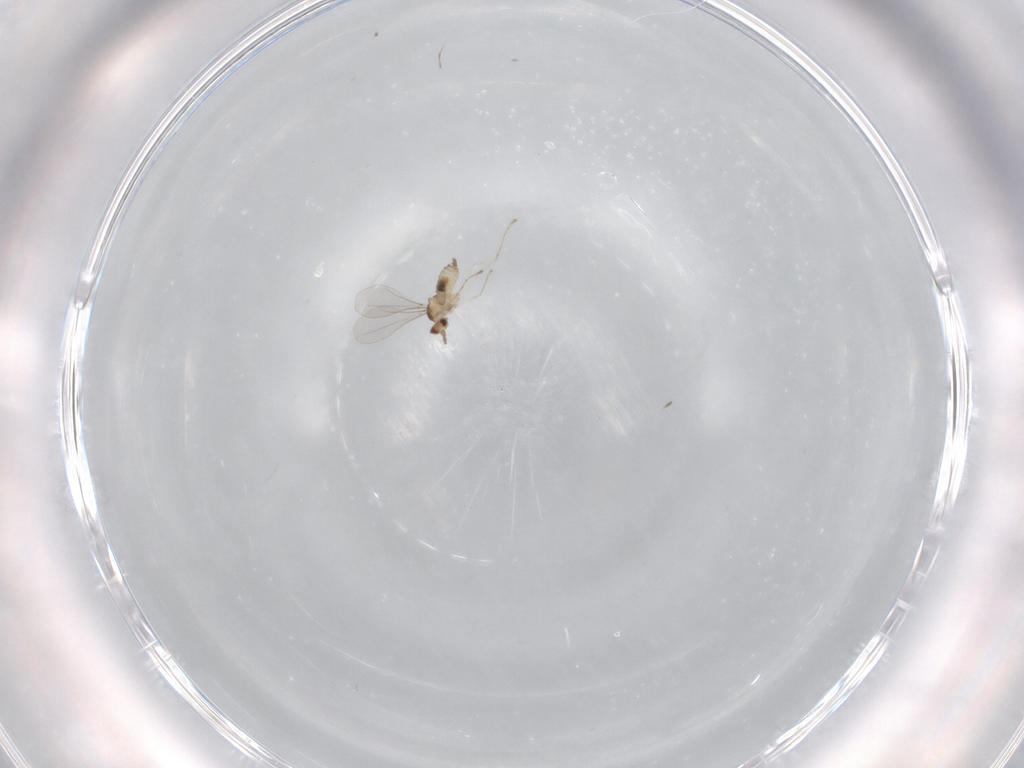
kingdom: Animalia
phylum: Arthropoda
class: Insecta
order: Diptera
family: Cecidomyiidae
